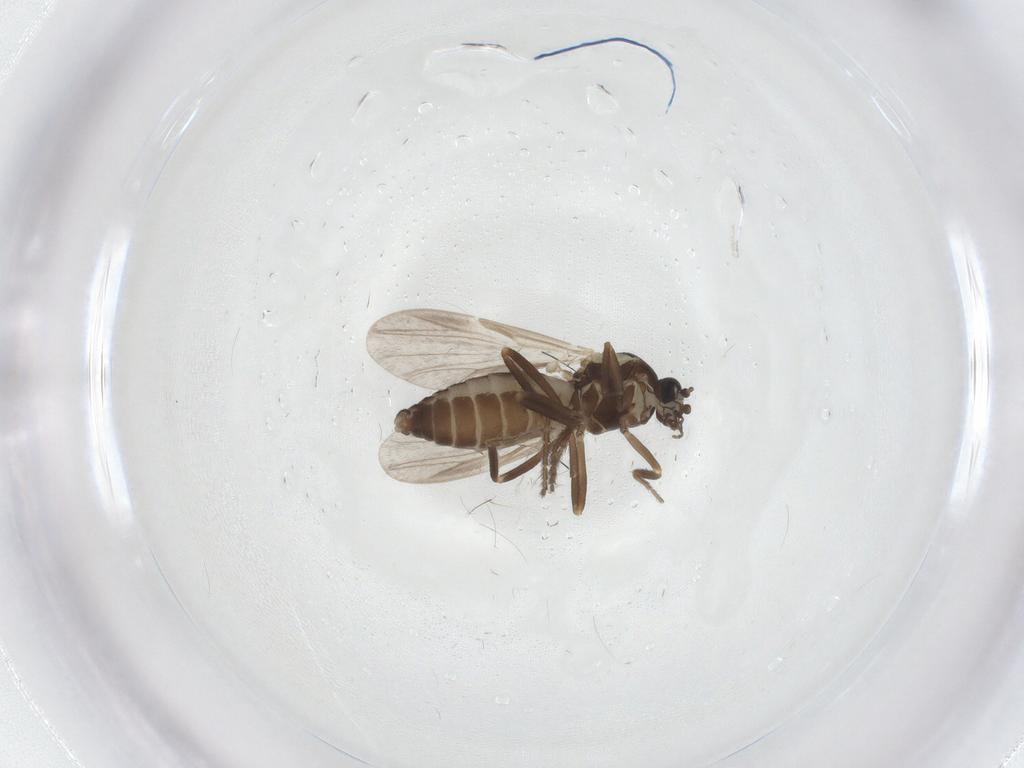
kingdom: Animalia
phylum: Arthropoda
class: Insecta
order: Diptera
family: Ceratopogonidae
